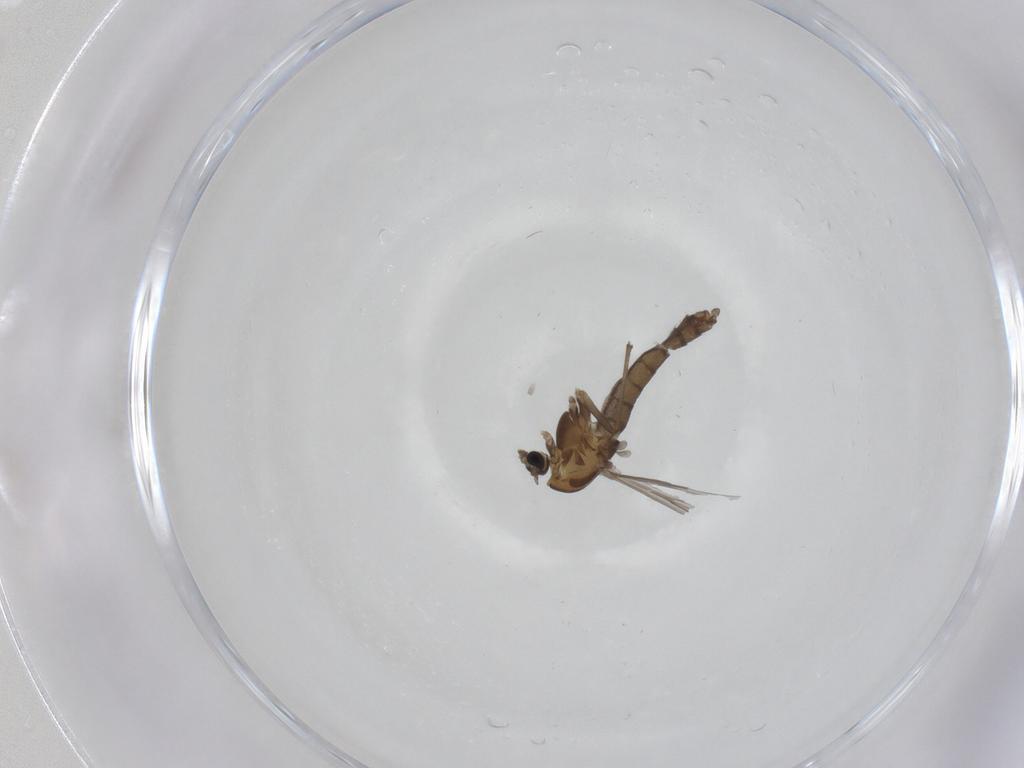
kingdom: Animalia
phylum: Arthropoda
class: Insecta
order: Diptera
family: Chironomidae
